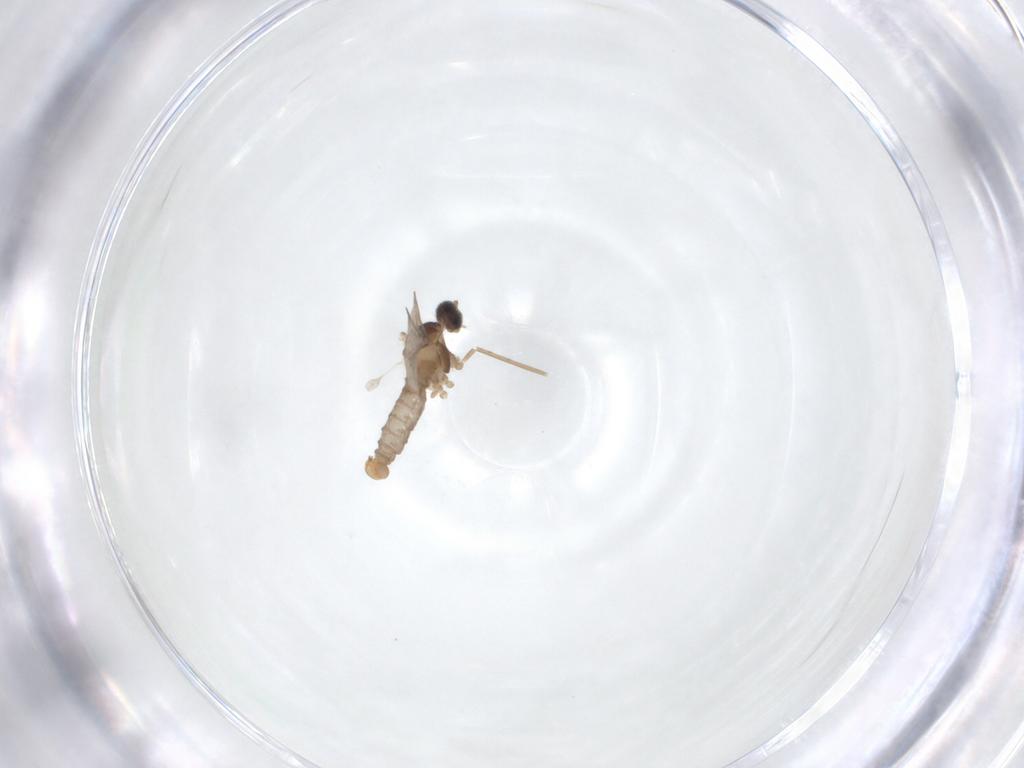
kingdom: Animalia
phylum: Arthropoda
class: Insecta
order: Diptera
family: Cecidomyiidae
